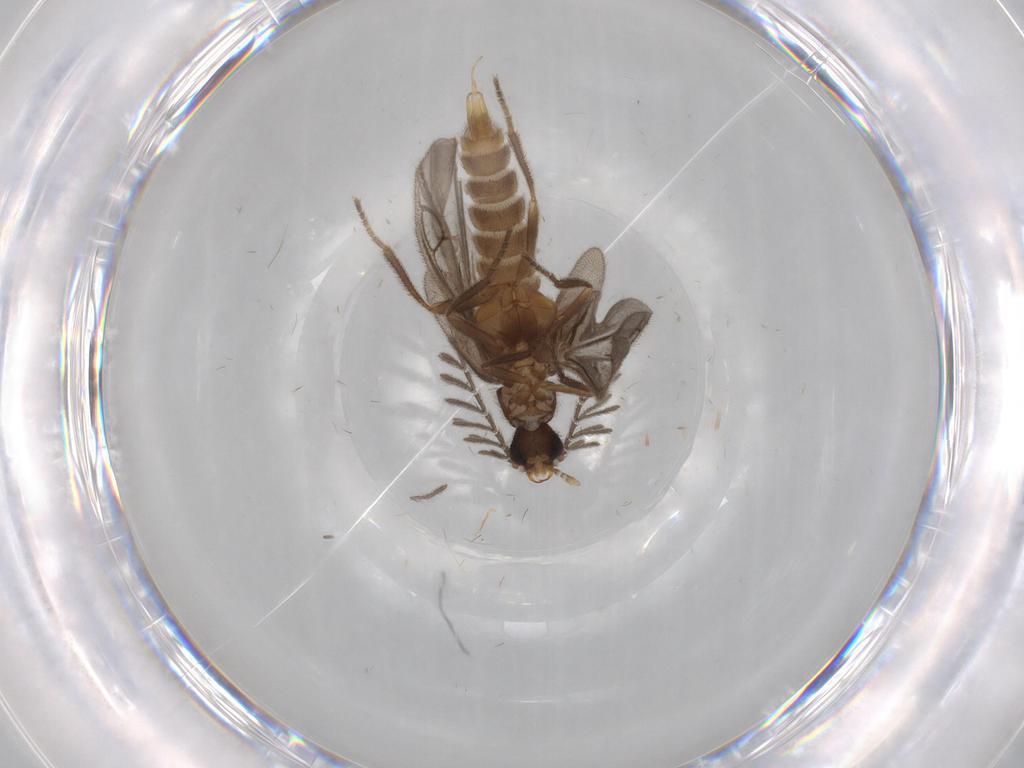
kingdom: Animalia
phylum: Arthropoda
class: Insecta
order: Coleoptera
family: Scarabaeidae
